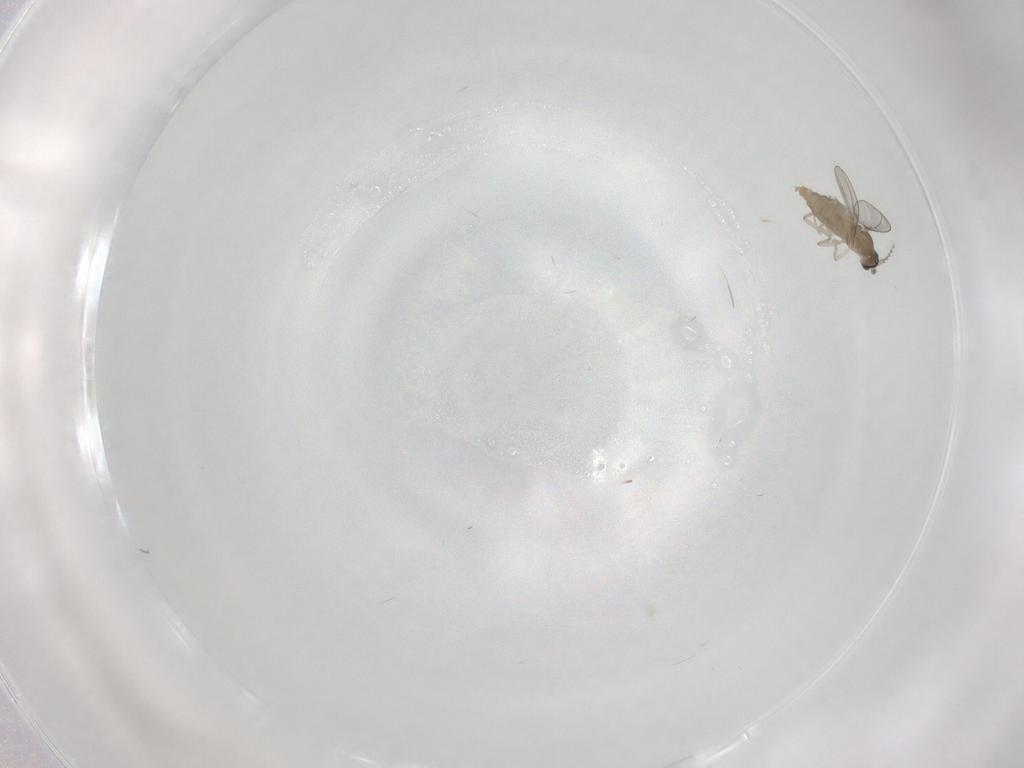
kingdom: Animalia
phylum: Arthropoda
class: Insecta
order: Diptera
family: Cecidomyiidae
